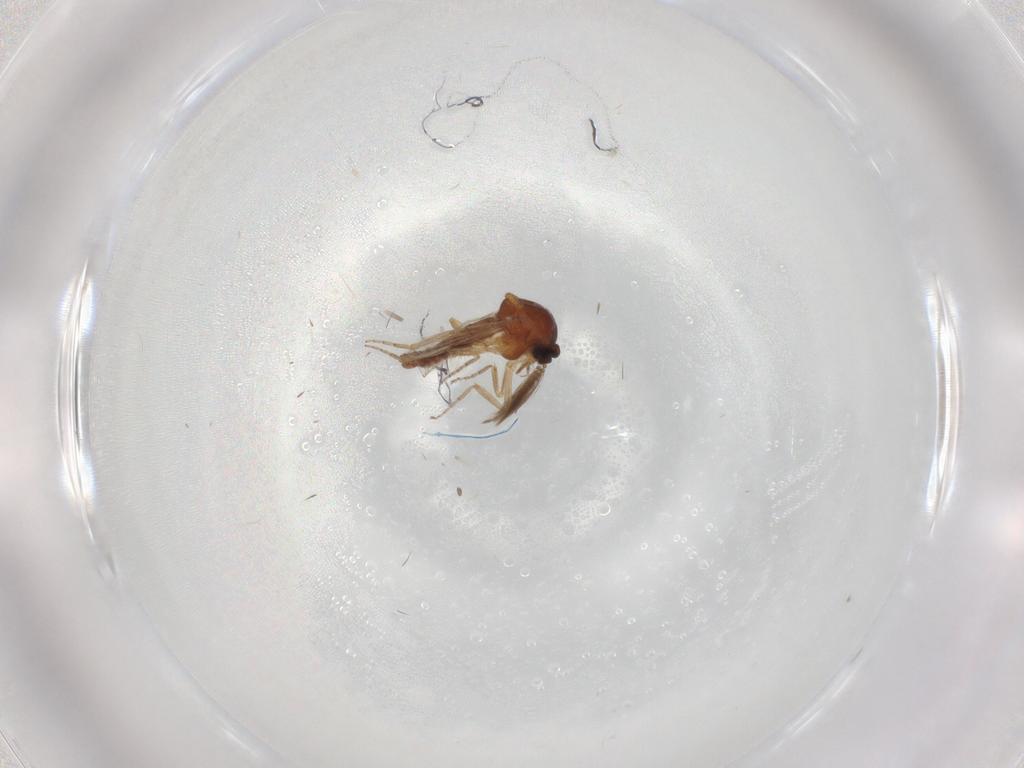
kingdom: Animalia
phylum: Arthropoda
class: Insecta
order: Diptera
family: Ceratopogonidae
